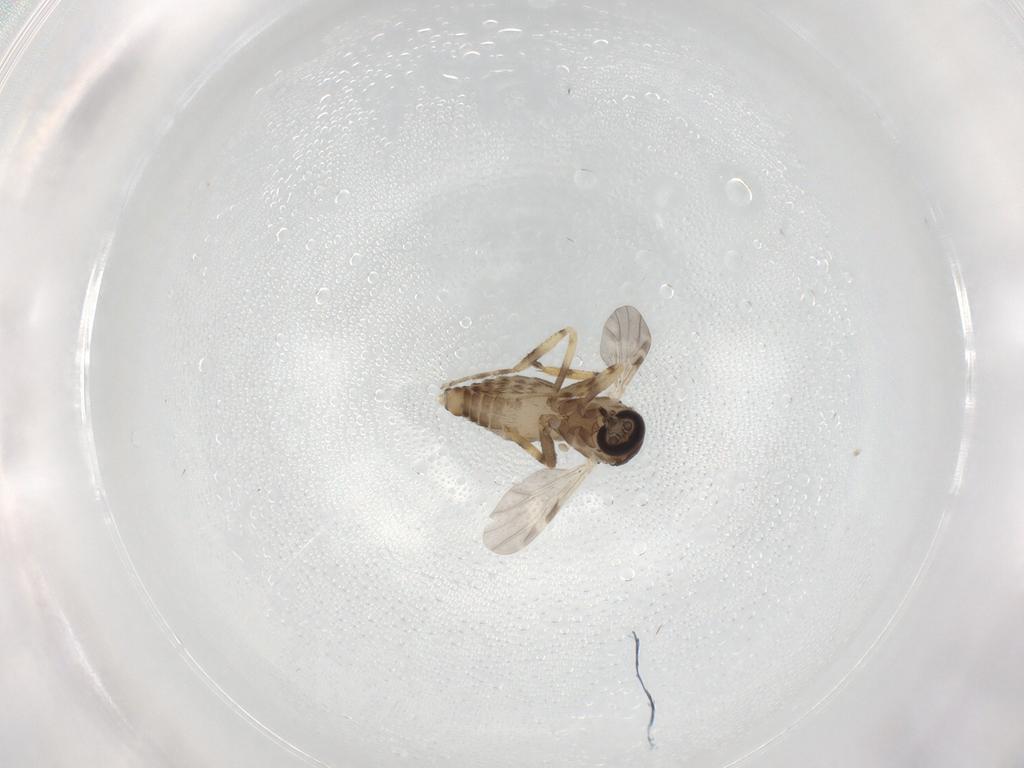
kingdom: Animalia
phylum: Arthropoda
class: Insecta
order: Diptera
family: Ceratopogonidae
